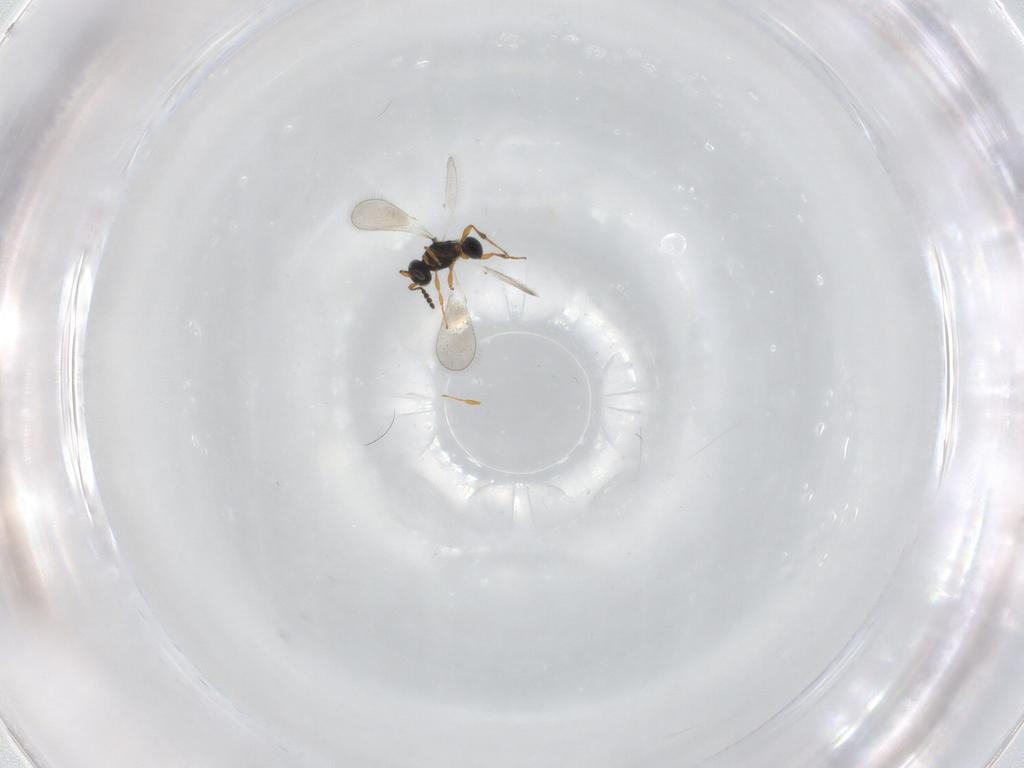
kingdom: Animalia
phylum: Arthropoda
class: Insecta
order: Hymenoptera
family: Platygastridae
